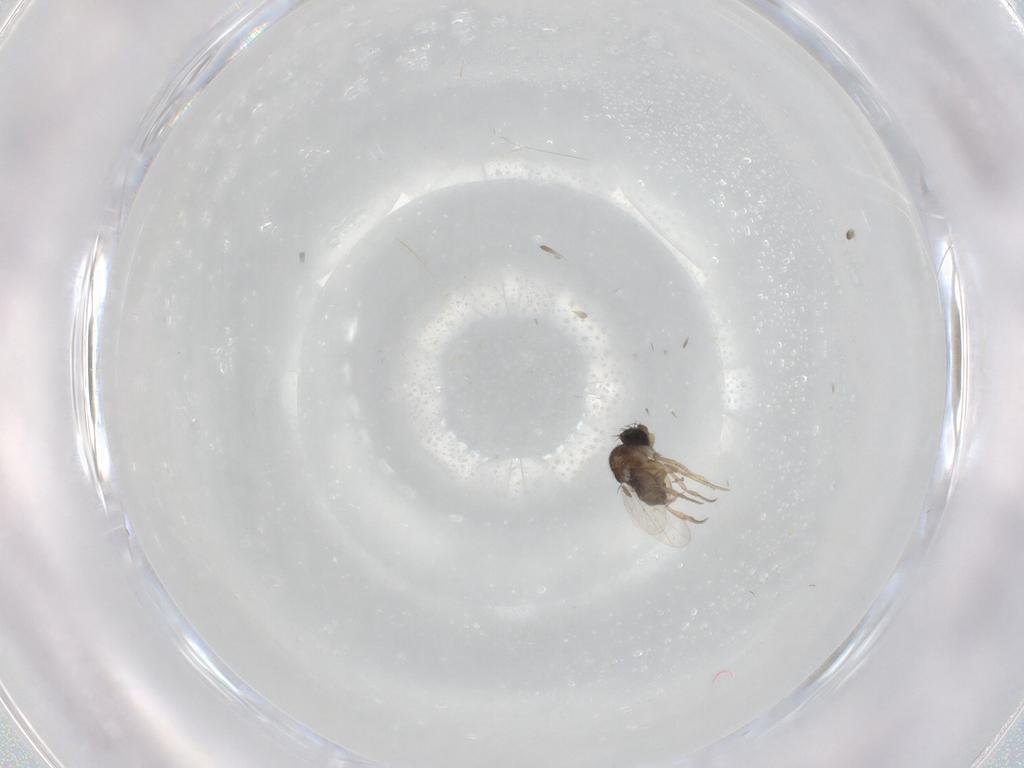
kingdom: Animalia
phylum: Arthropoda
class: Insecta
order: Diptera
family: Phoridae
